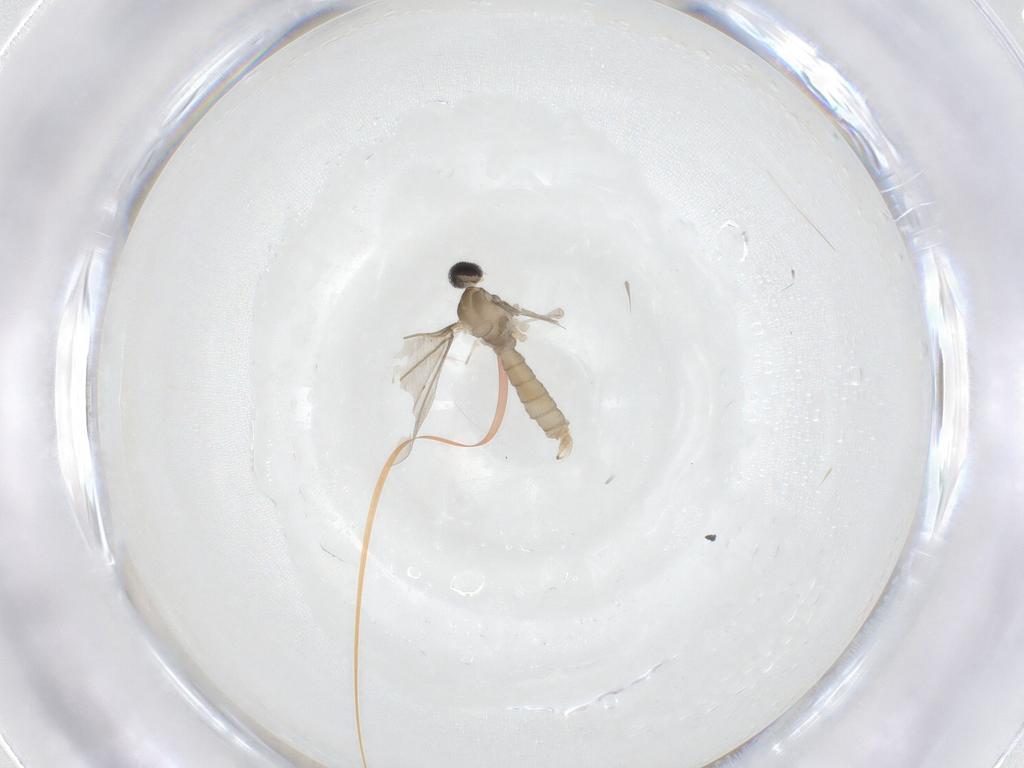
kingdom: Animalia
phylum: Arthropoda
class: Insecta
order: Diptera
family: Cecidomyiidae
